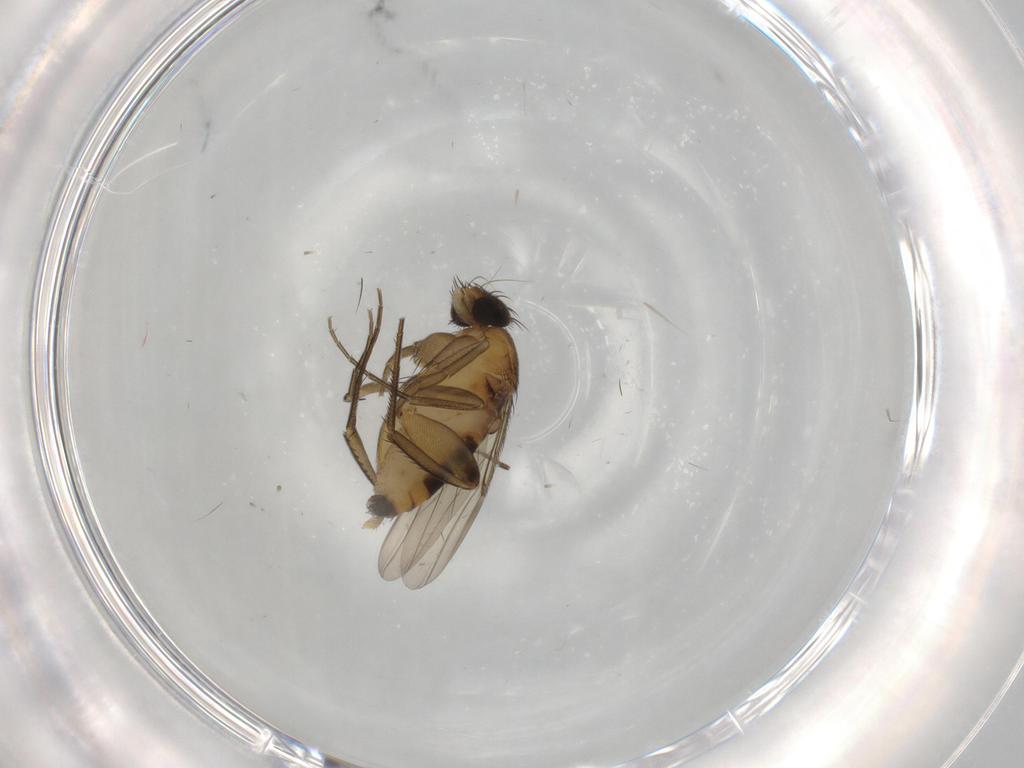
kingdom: Animalia
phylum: Arthropoda
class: Insecta
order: Diptera
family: Phoridae
